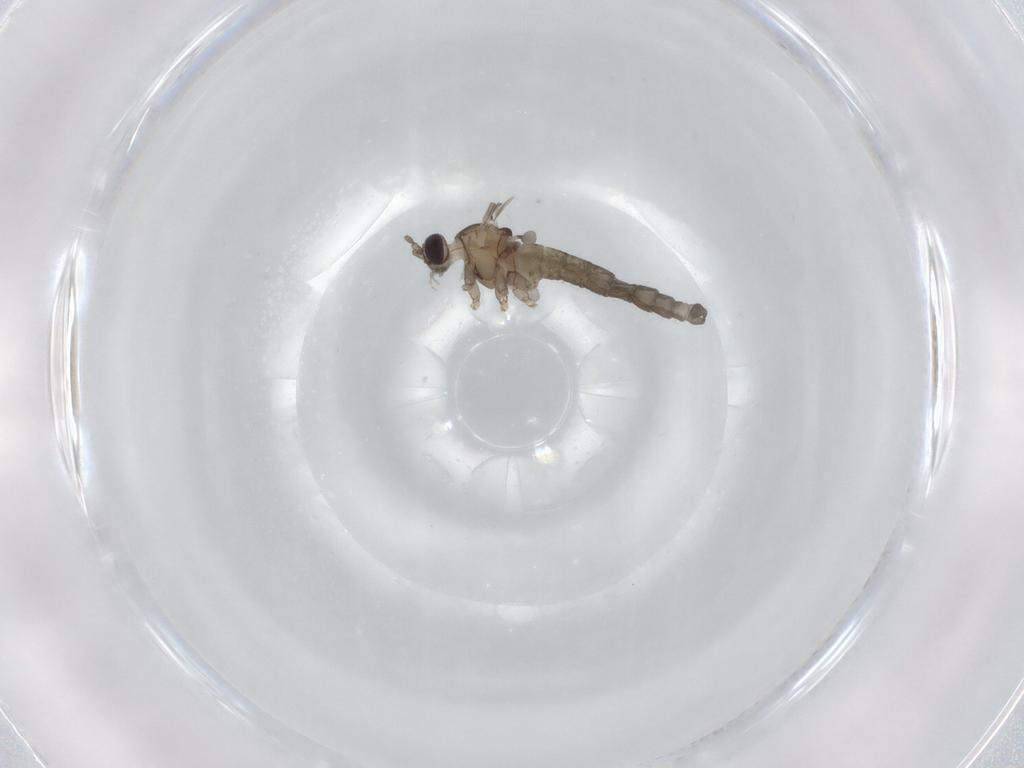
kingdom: Animalia
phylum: Arthropoda
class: Insecta
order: Diptera
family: Cecidomyiidae
